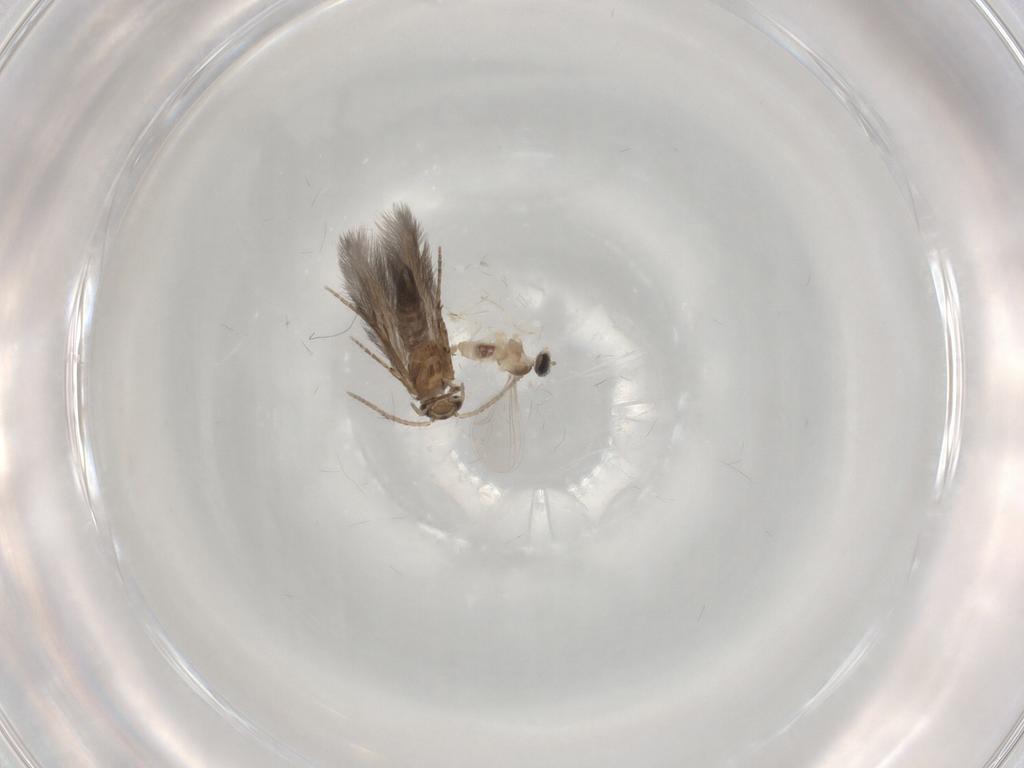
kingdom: Animalia
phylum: Arthropoda
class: Insecta
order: Diptera
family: Cecidomyiidae
